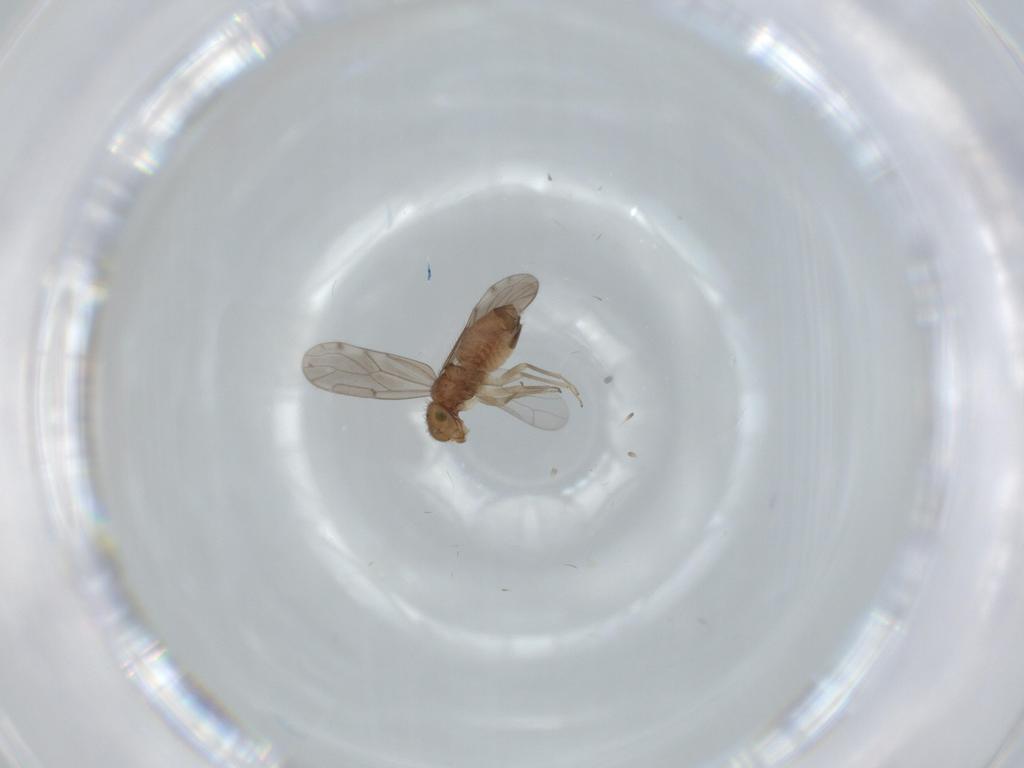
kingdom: Animalia
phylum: Arthropoda
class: Insecta
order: Psocodea
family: Ectopsocidae
